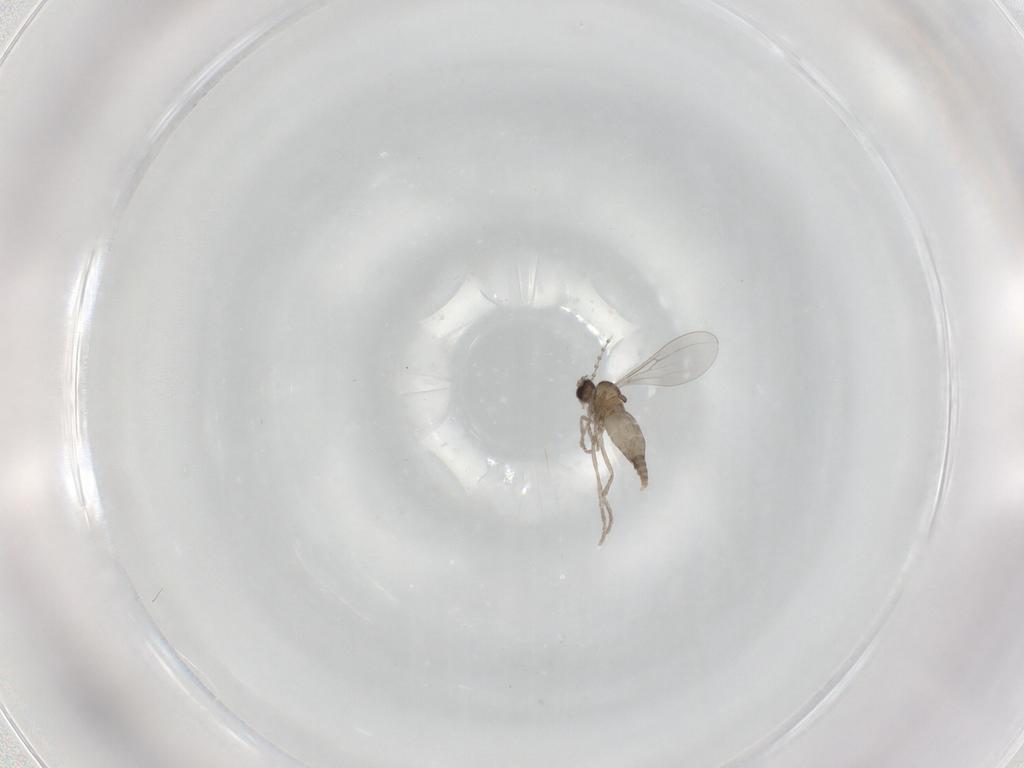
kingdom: Animalia
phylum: Arthropoda
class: Insecta
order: Diptera
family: Cecidomyiidae
